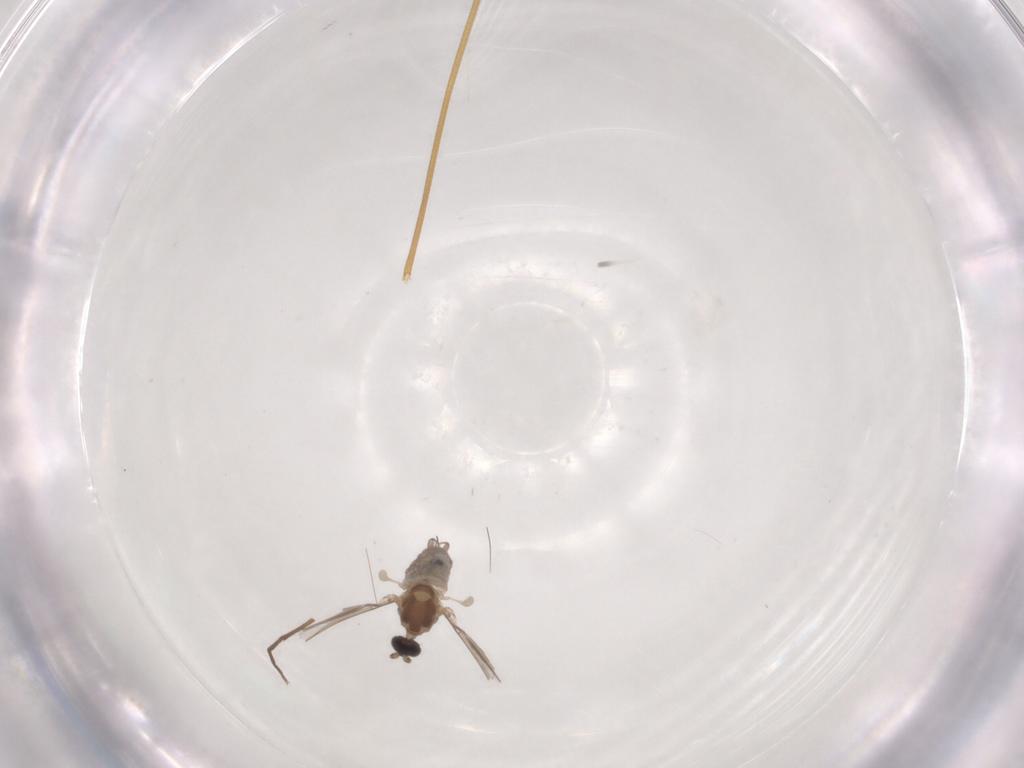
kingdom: Animalia
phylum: Arthropoda
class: Insecta
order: Diptera
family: Chironomidae
